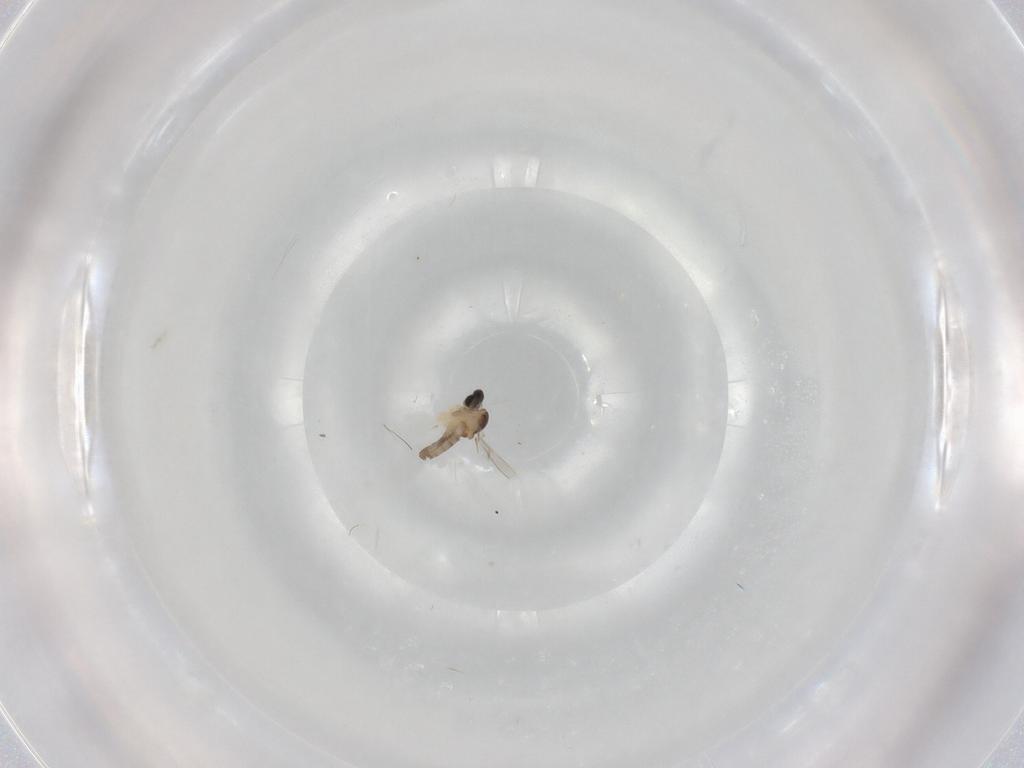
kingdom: Animalia
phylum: Arthropoda
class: Insecta
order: Diptera
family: Cecidomyiidae
